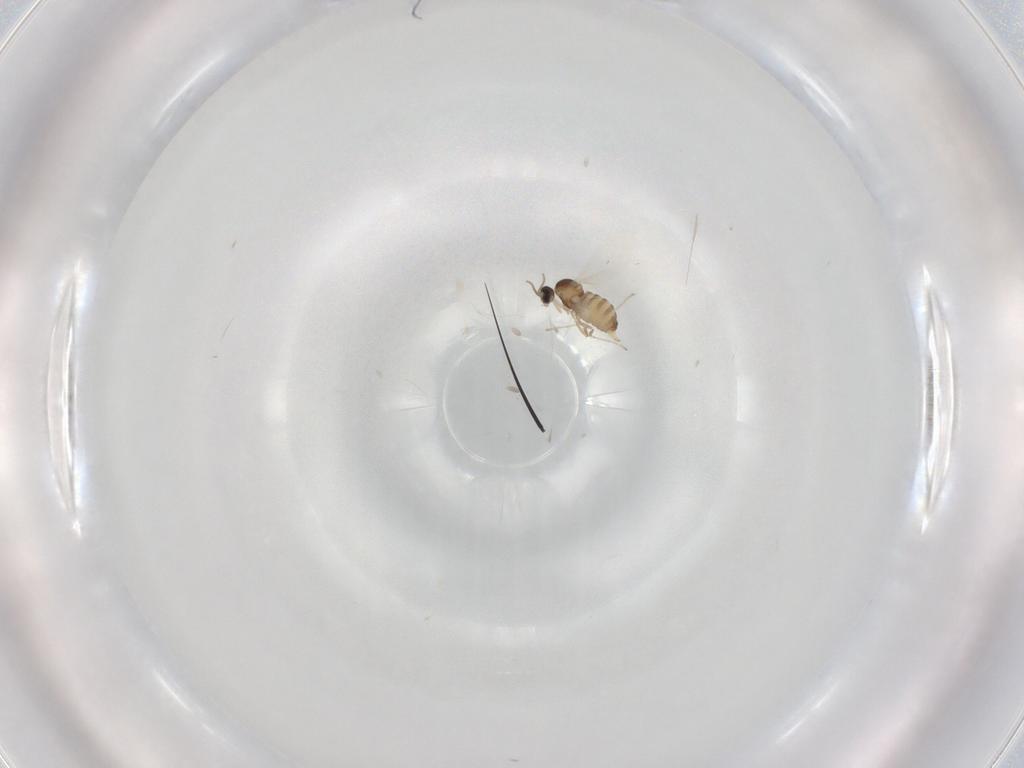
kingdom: Animalia
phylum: Arthropoda
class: Insecta
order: Diptera
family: Cecidomyiidae
